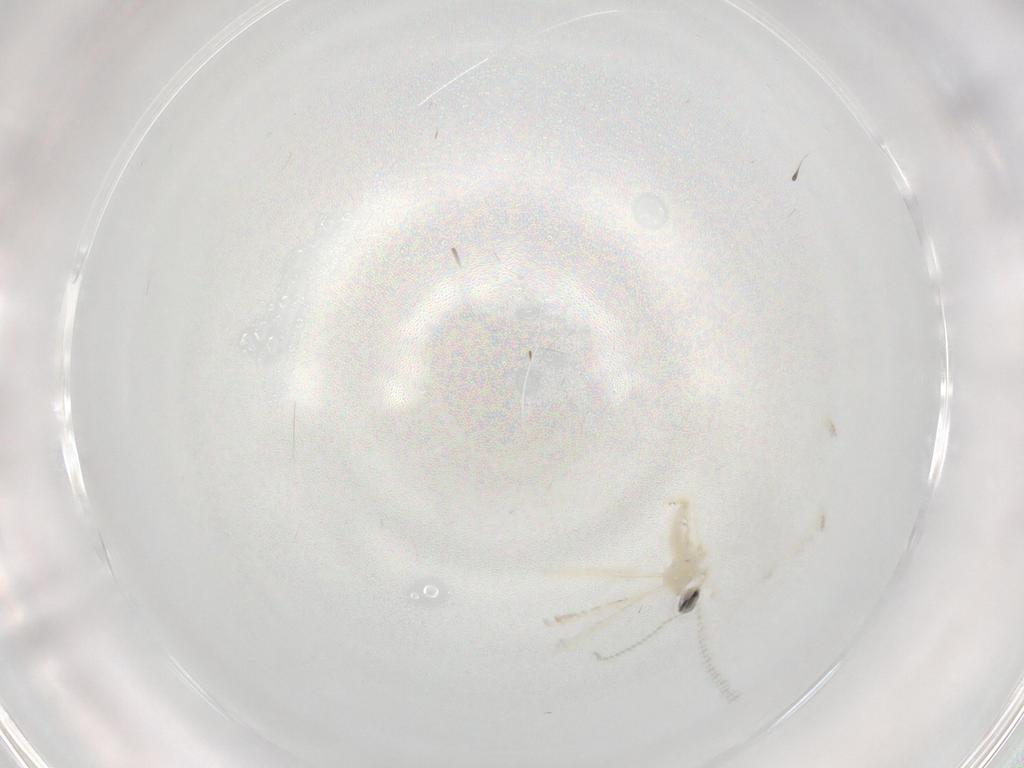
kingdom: Animalia
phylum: Arthropoda
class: Insecta
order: Diptera
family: Cecidomyiidae
